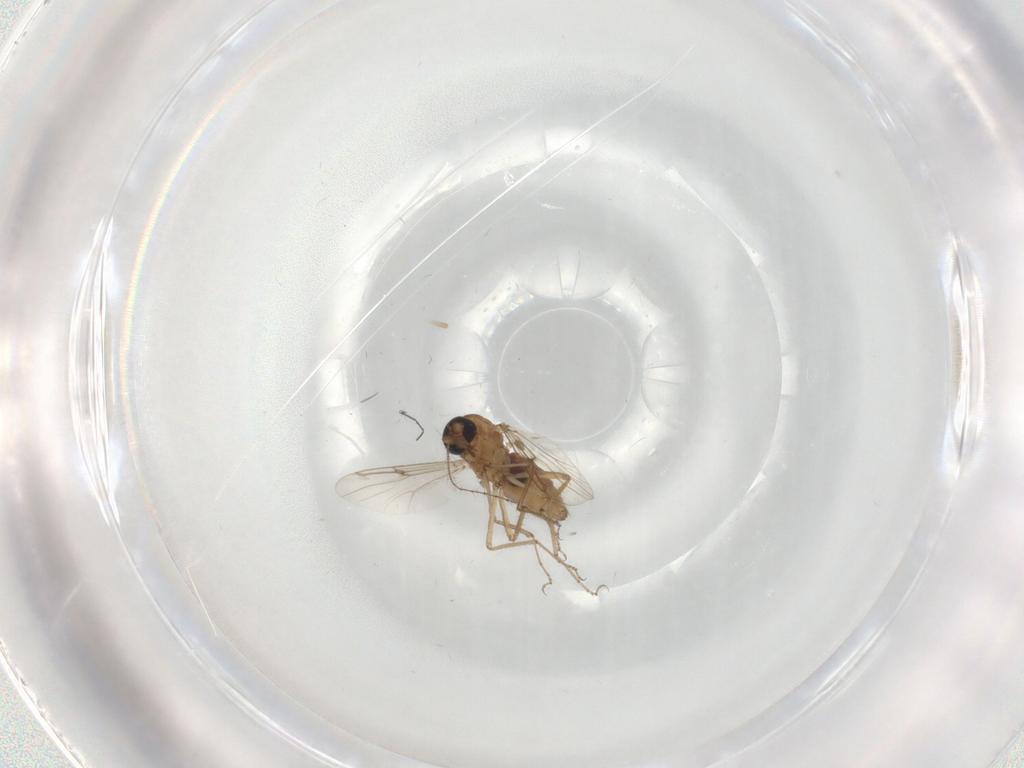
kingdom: Animalia
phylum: Arthropoda
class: Insecta
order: Diptera
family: Ceratopogonidae
